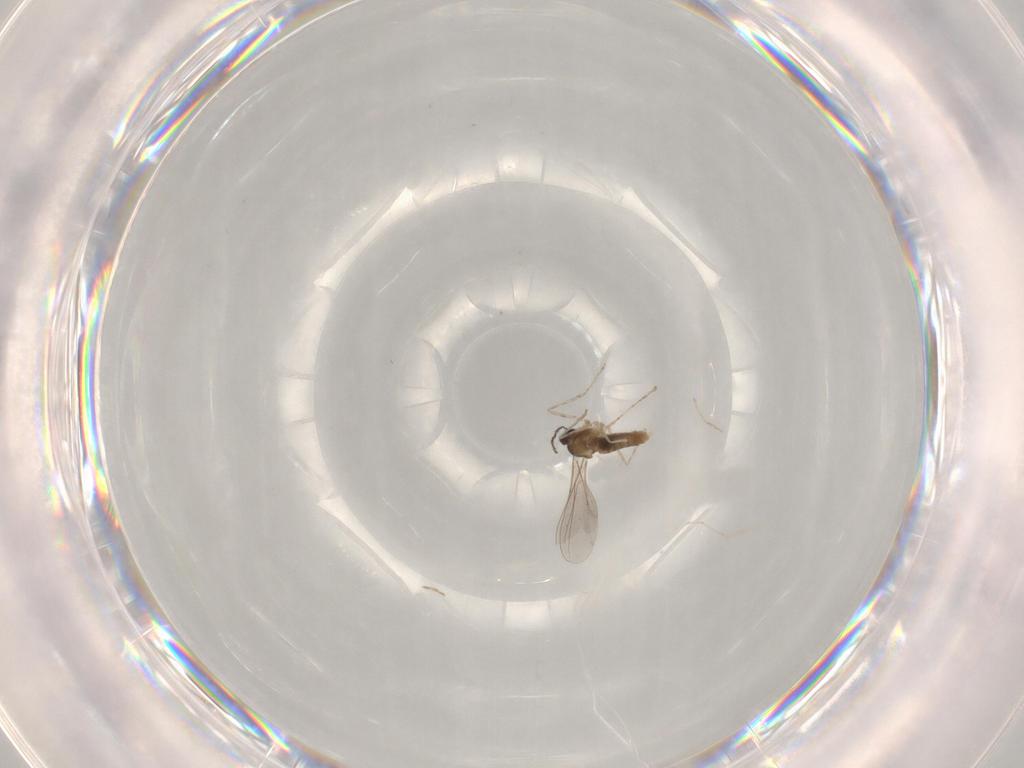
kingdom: Animalia
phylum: Arthropoda
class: Insecta
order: Diptera
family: Cecidomyiidae
